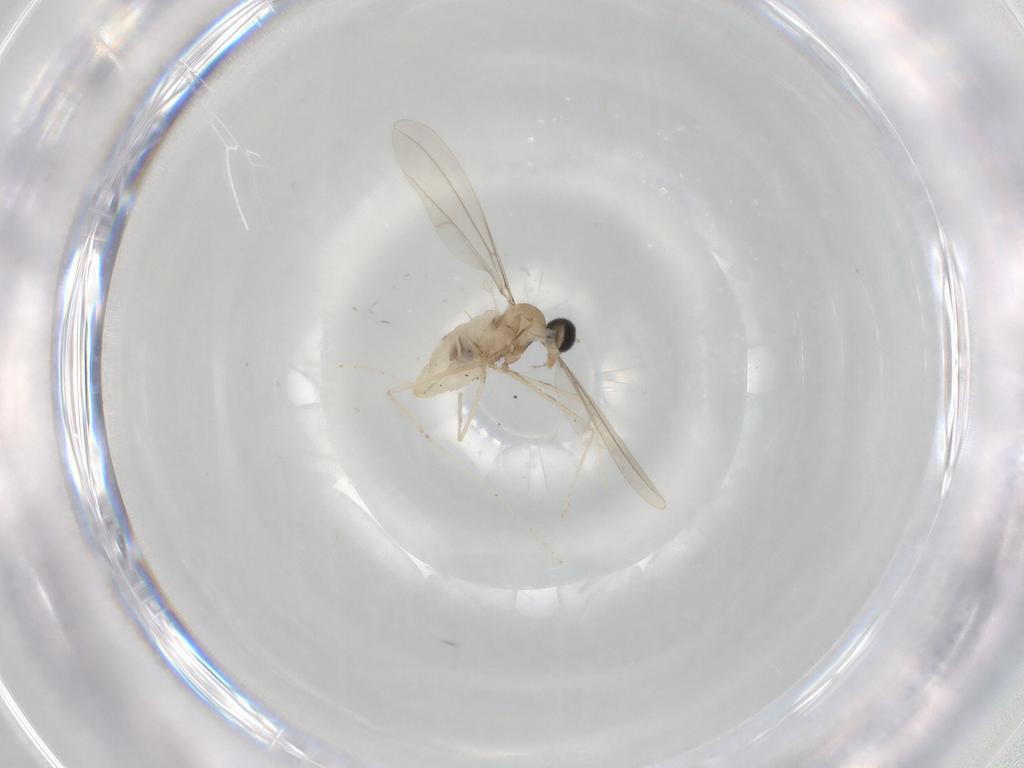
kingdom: Animalia
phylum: Arthropoda
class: Insecta
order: Diptera
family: Cecidomyiidae
